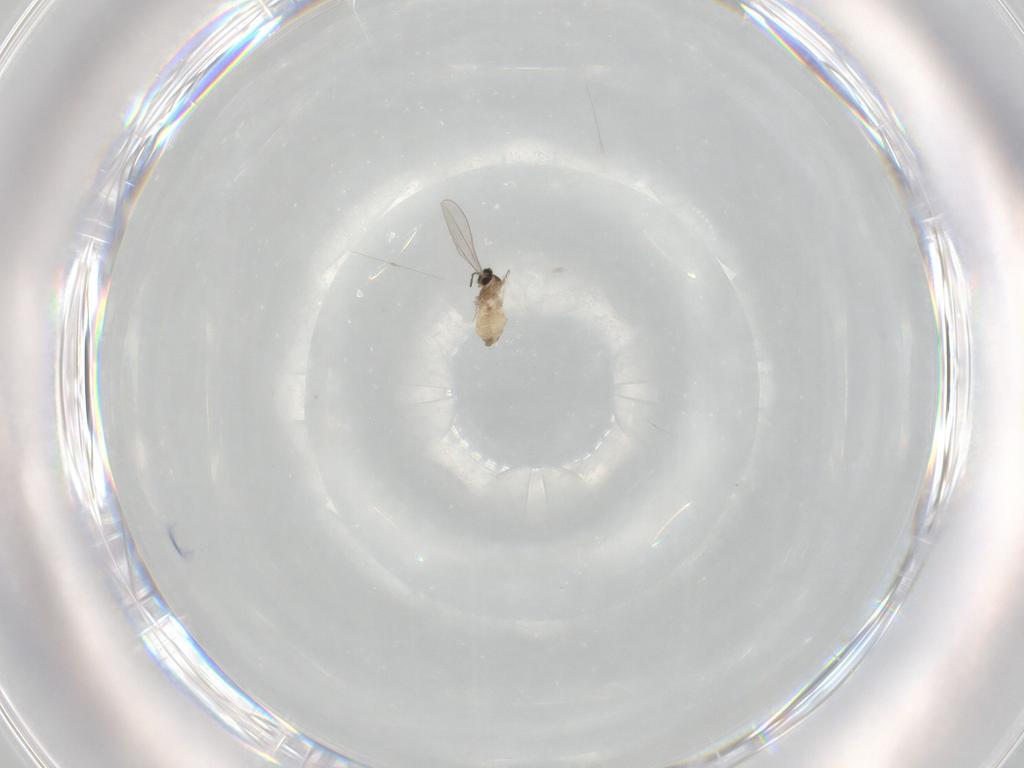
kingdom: Animalia
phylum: Arthropoda
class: Insecta
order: Diptera
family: Cecidomyiidae
